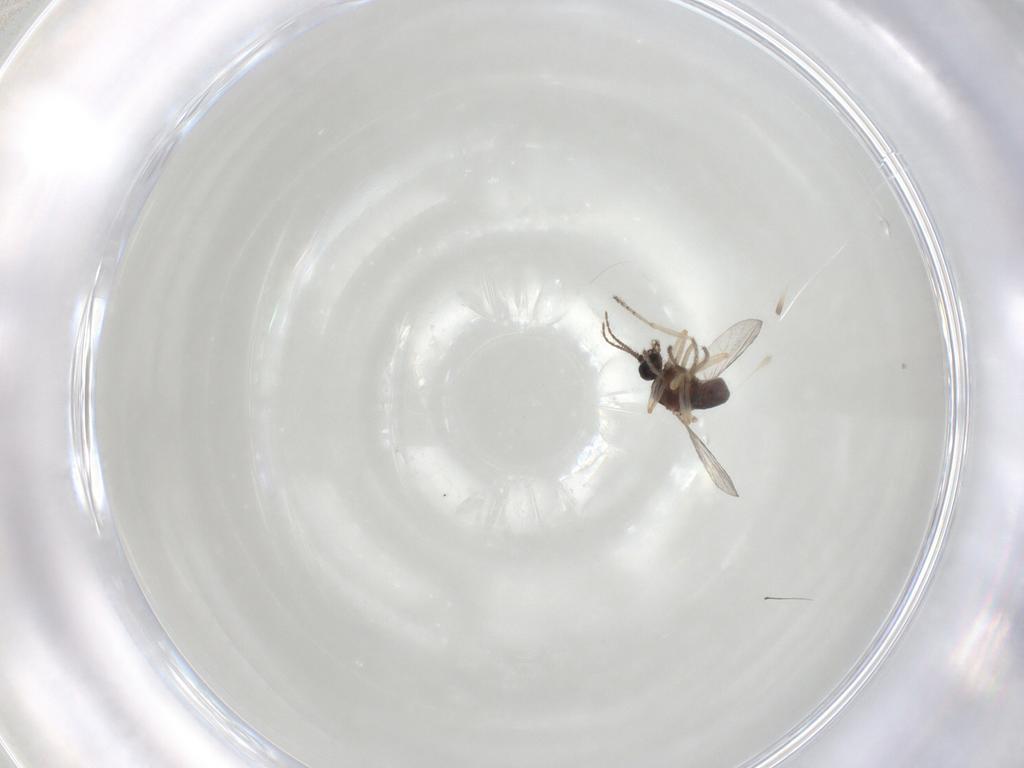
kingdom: Animalia
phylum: Arthropoda
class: Insecta
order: Diptera
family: Ceratopogonidae
